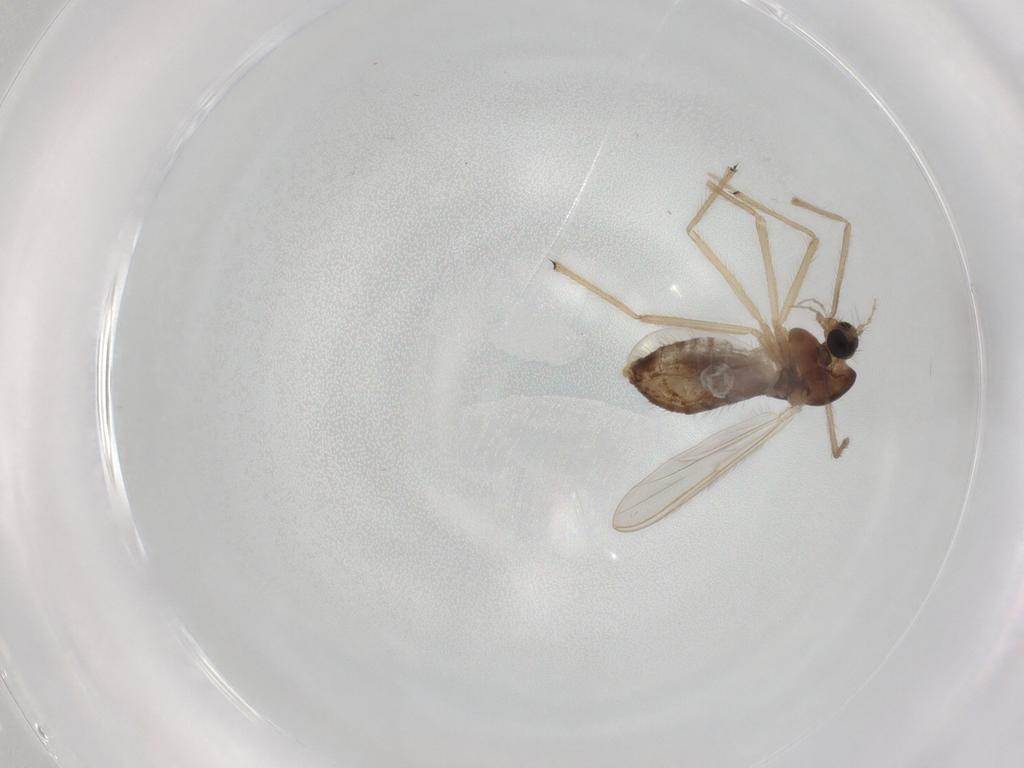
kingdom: Animalia
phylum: Arthropoda
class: Insecta
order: Diptera
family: Chironomidae
